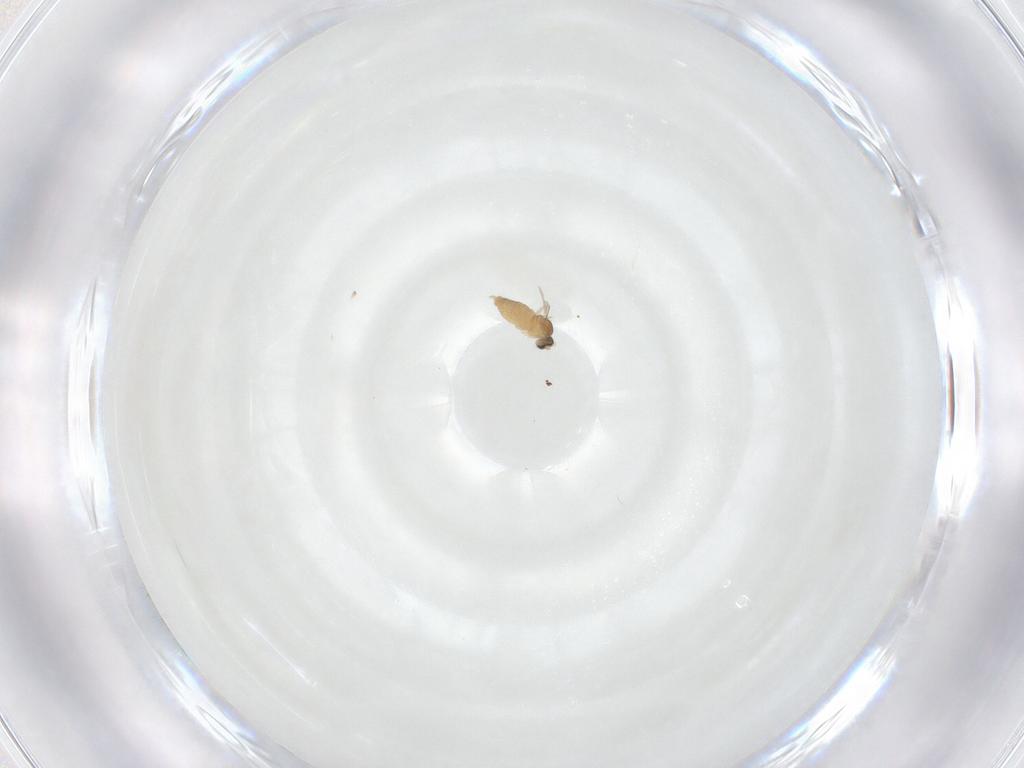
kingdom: Animalia
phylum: Arthropoda
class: Insecta
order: Diptera
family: Cecidomyiidae
